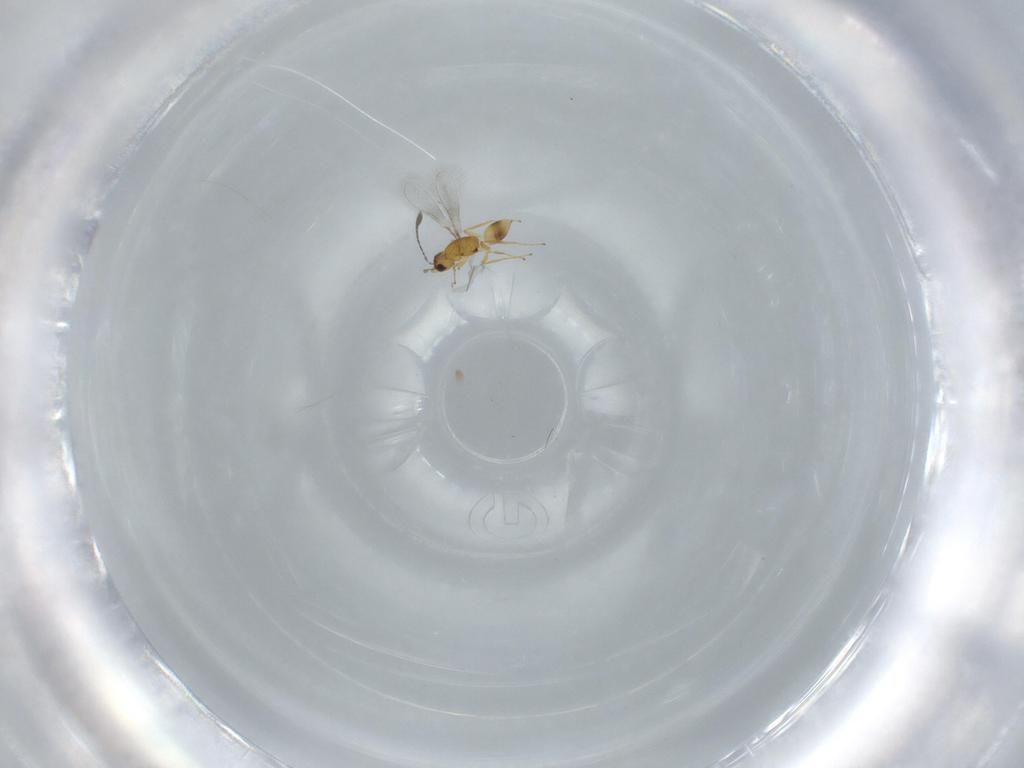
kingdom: Animalia
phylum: Arthropoda
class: Insecta
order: Hymenoptera
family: Mymaridae
